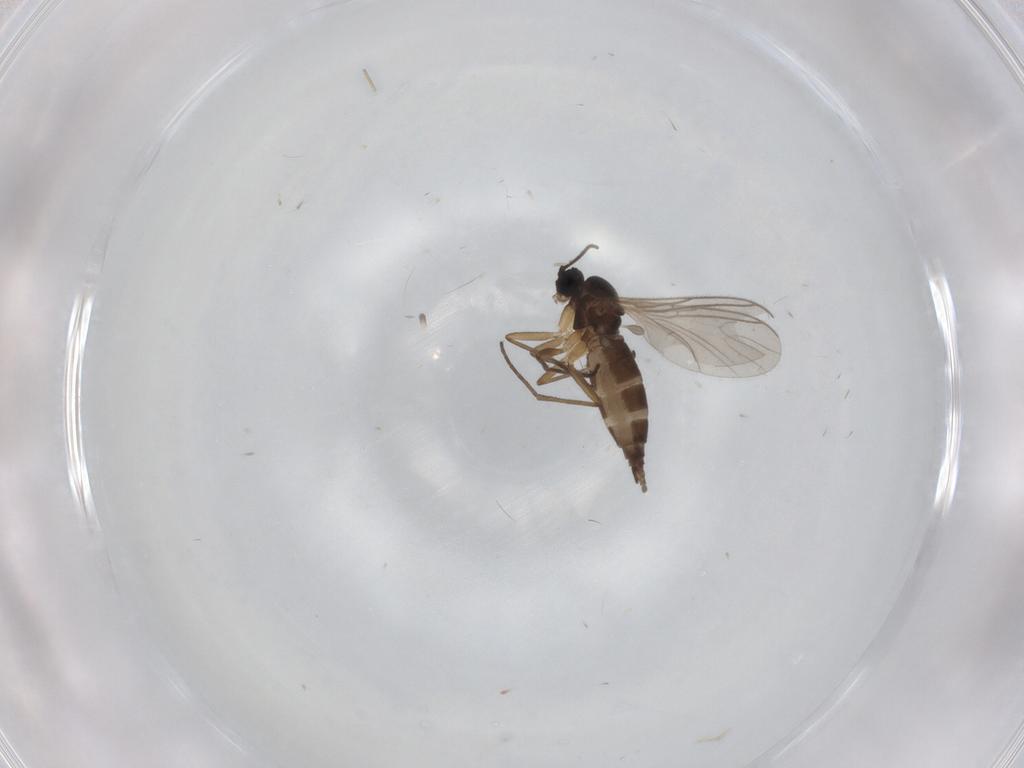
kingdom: Animalia
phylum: Arthropoda
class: Insecta
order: Diptera
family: Sciaridae
